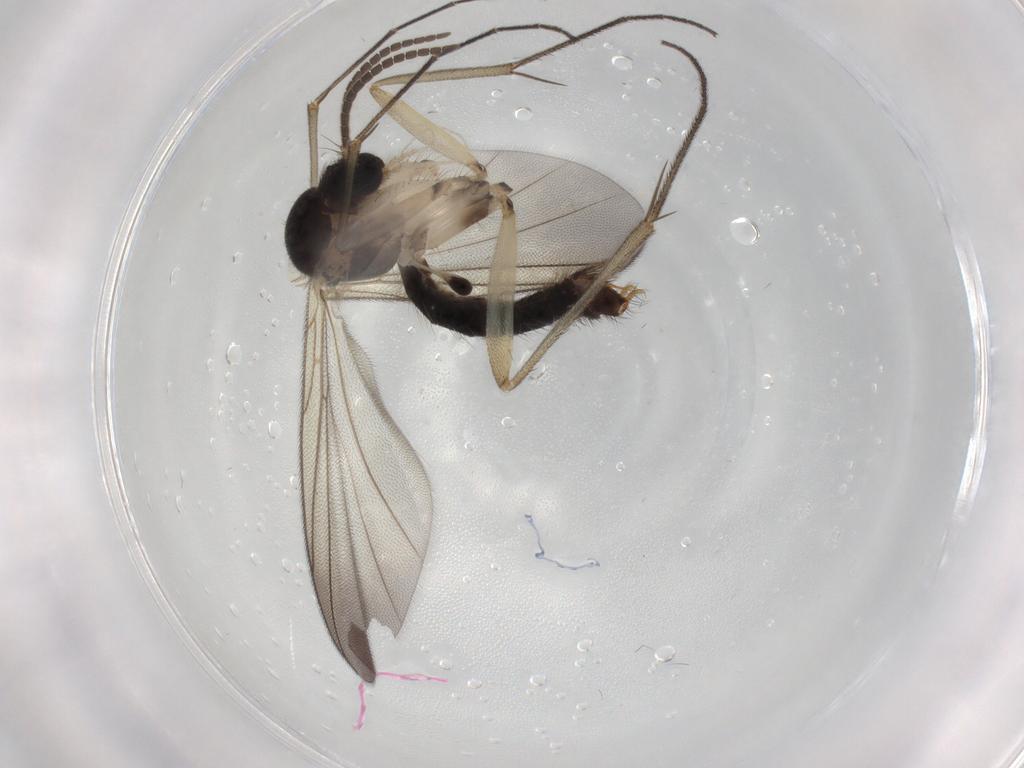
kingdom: Animalia
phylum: Arthropoda
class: Insecta
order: Diptera
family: Mycetophilidae
